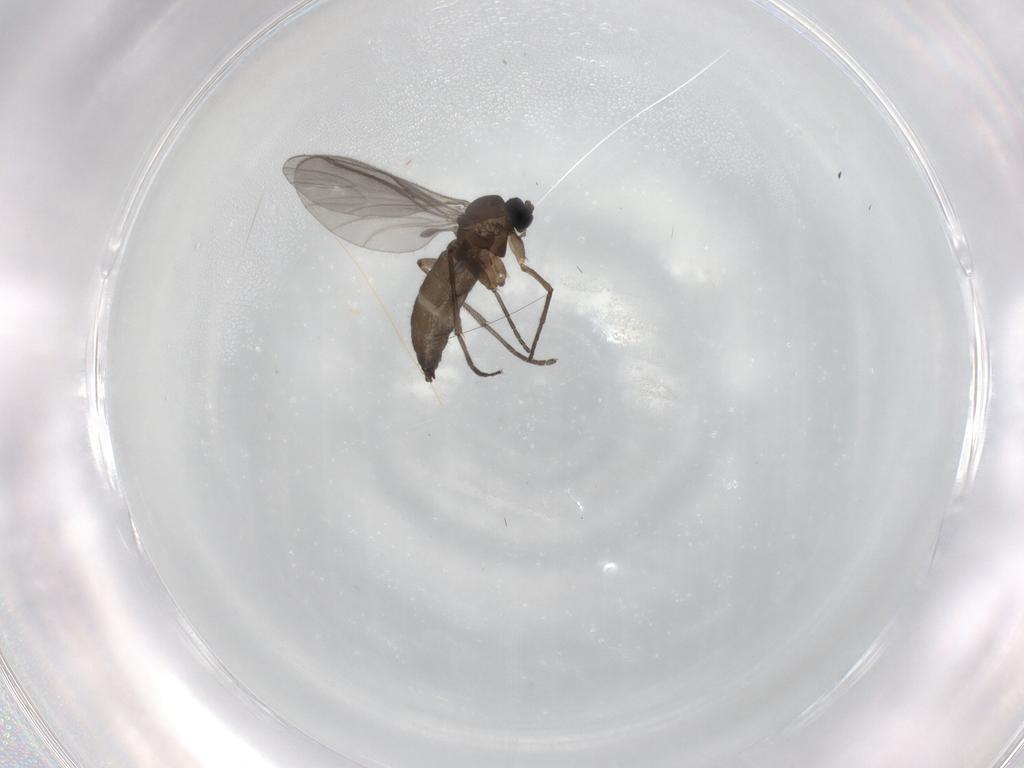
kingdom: Animalia
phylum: Arthropoda
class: Insecta
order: Diptera
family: Sciaridae
